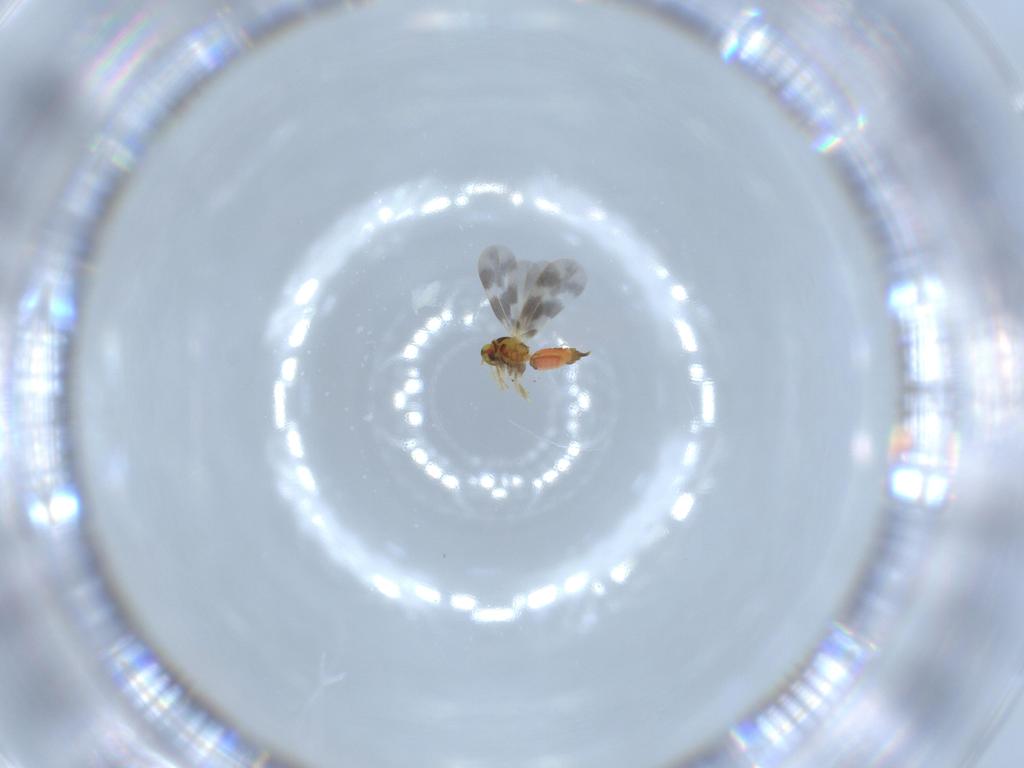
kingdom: Animalia
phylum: Arthropoda
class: Insecta
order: Hemiptera
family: Aleyrodidae
